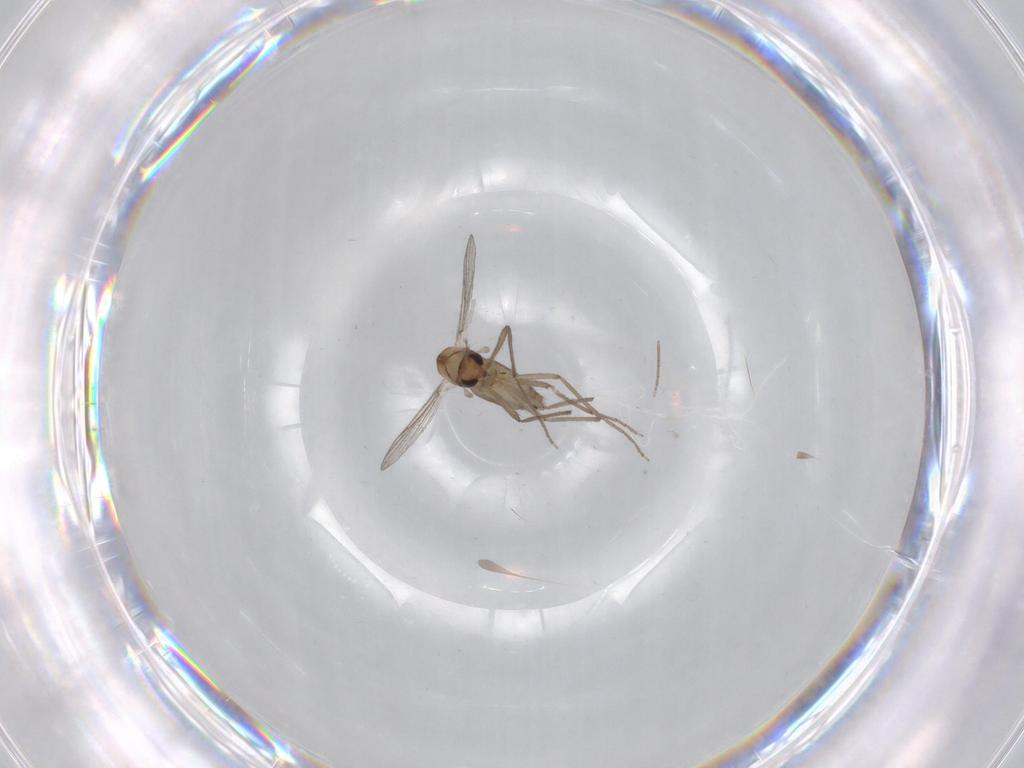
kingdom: Animalia
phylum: Arthropoda
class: Insecta
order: Diptera
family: Chironomidae
